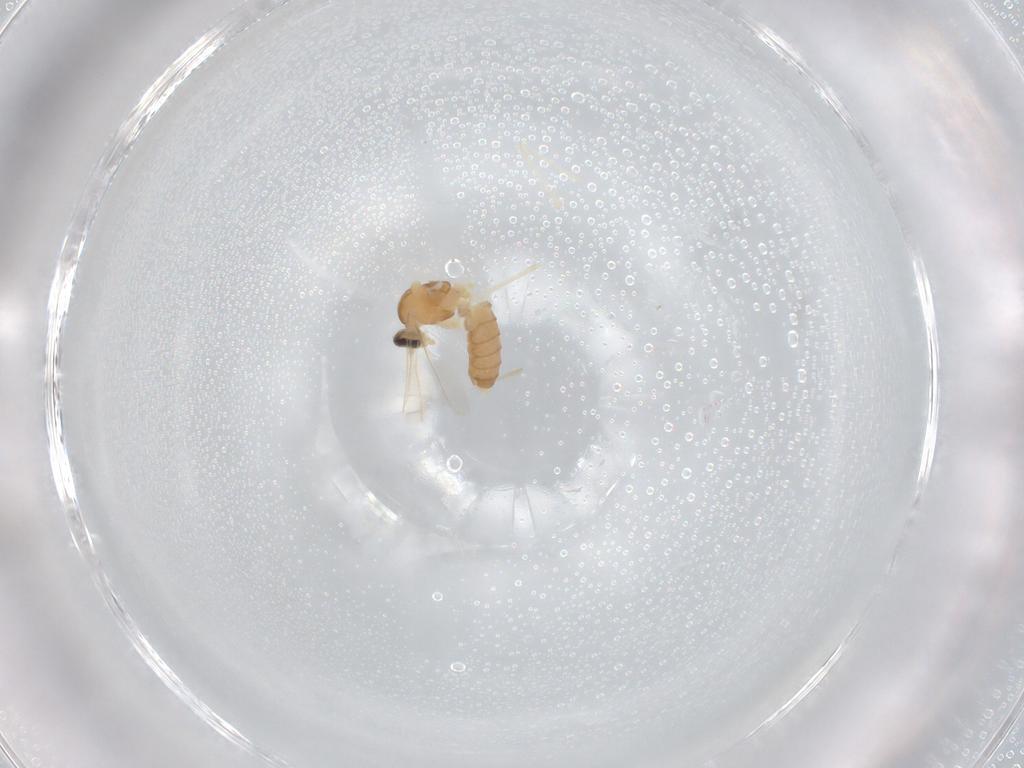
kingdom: Animalia
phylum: Arthropoda
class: Insecta
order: Diptera
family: Cecidomyiidae
